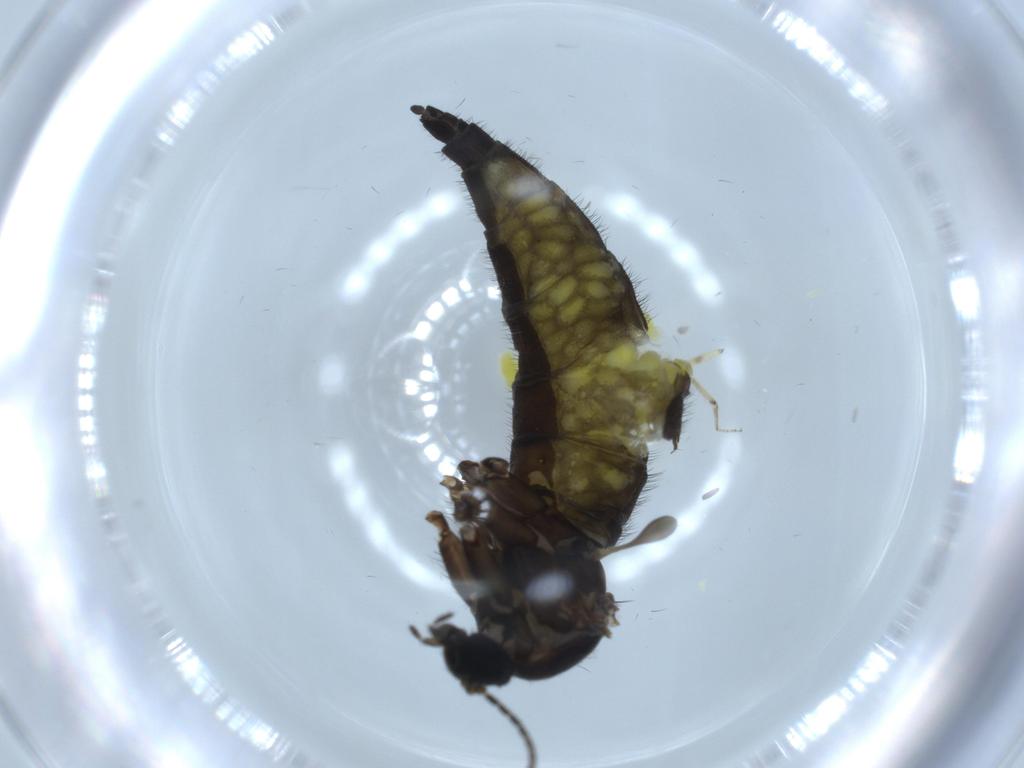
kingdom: Animalia
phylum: Arthropoda
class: Insecta
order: Diptera
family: Sciaridae
